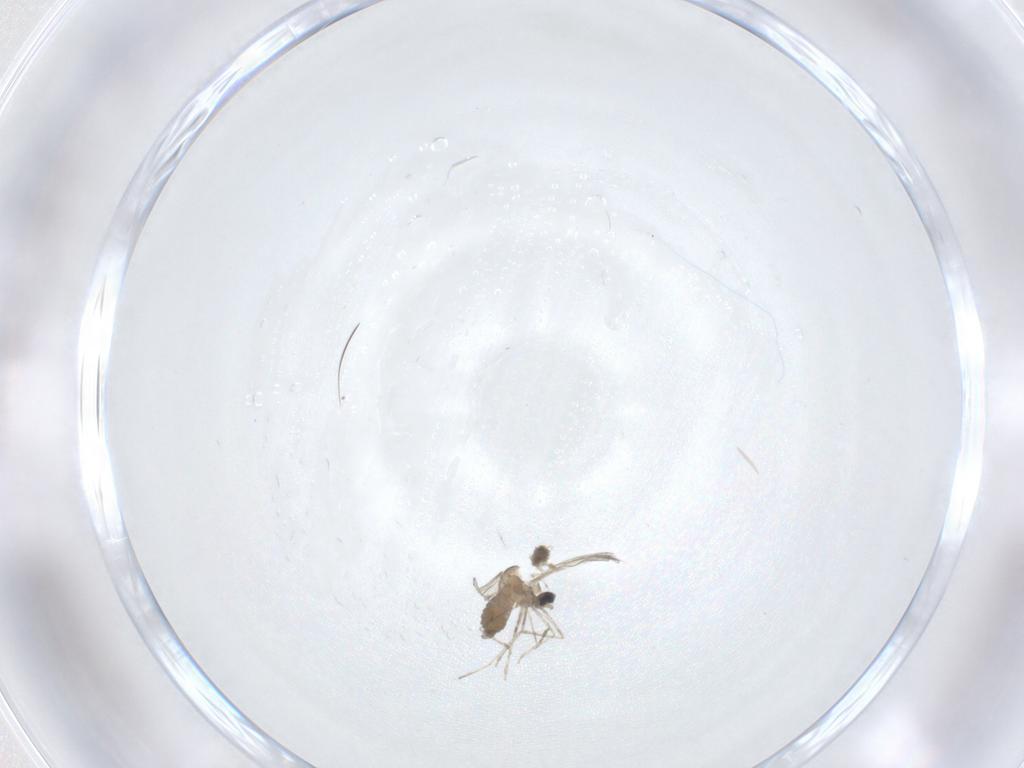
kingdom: Animalia
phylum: Arthropoda
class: Insecta
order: Diptera
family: Cecidomyiidae
